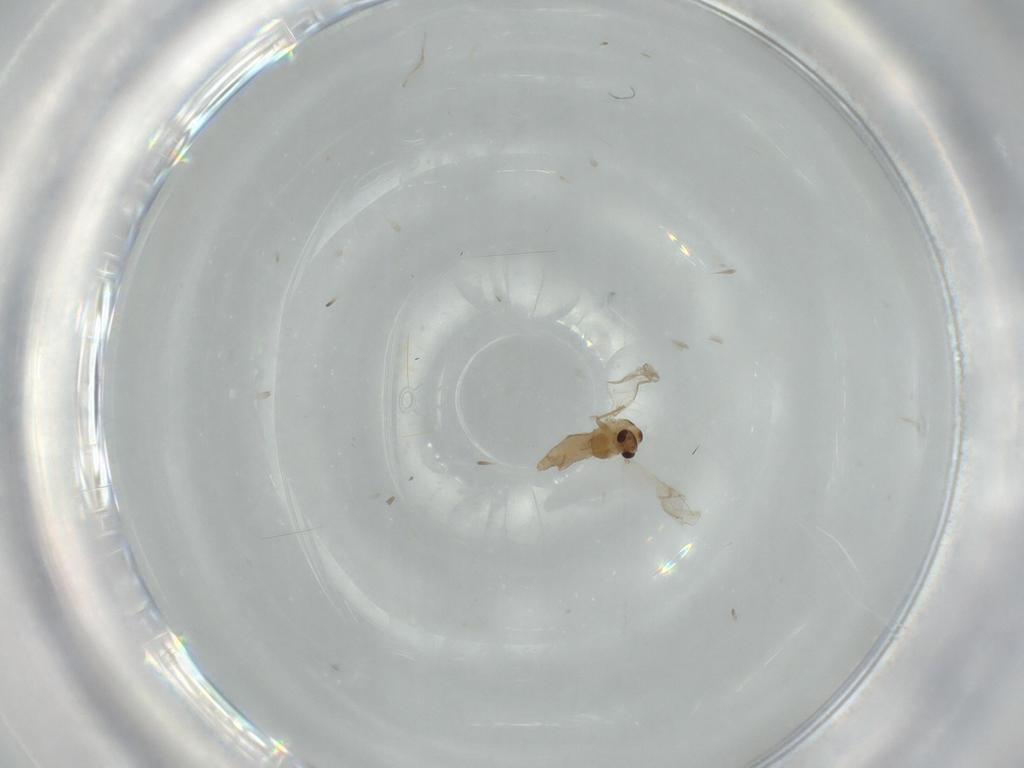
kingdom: Animalia
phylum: Arthropoda
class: Insecta
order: Diptera
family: Chironomidae
